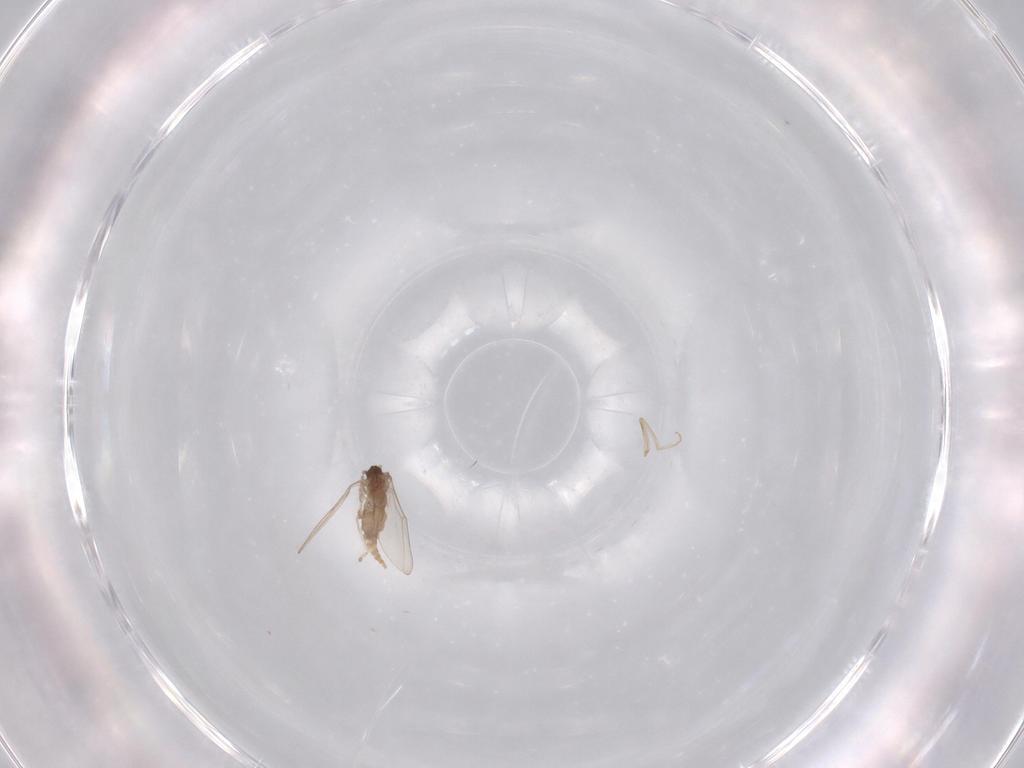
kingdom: Animalia
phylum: Arthropoda
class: Insecta
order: Diptera
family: Cecidomyiidae
